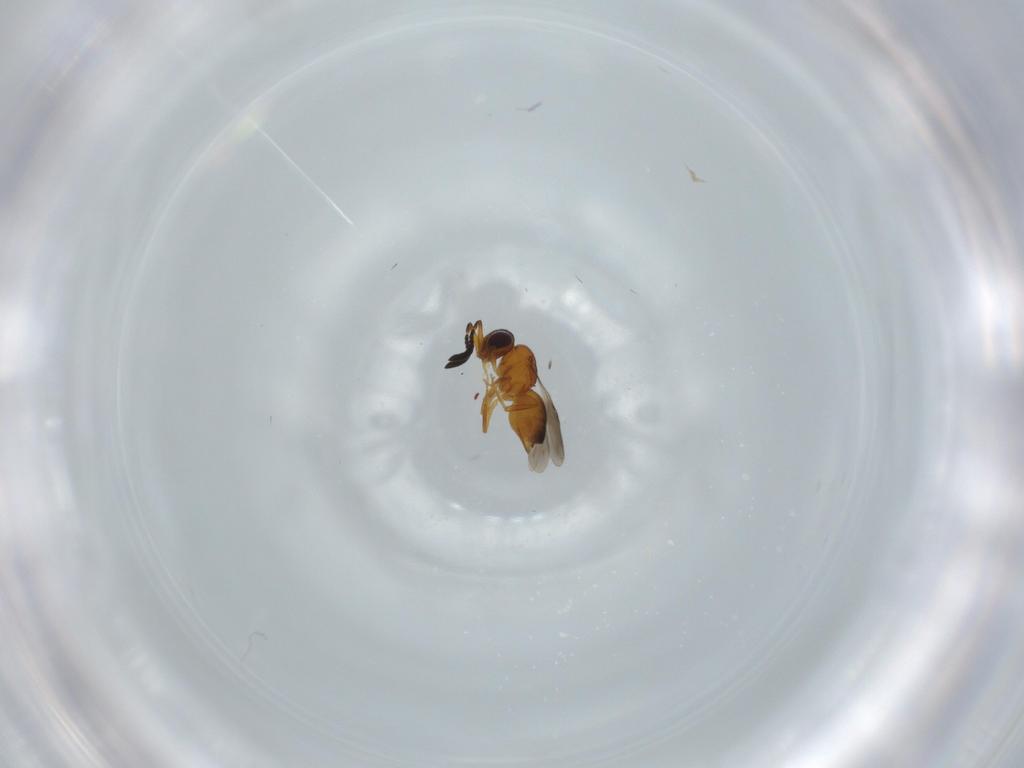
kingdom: Animalia
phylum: Arthropoda
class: Insecta
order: Hymenoptera
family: Ceraphronidae
